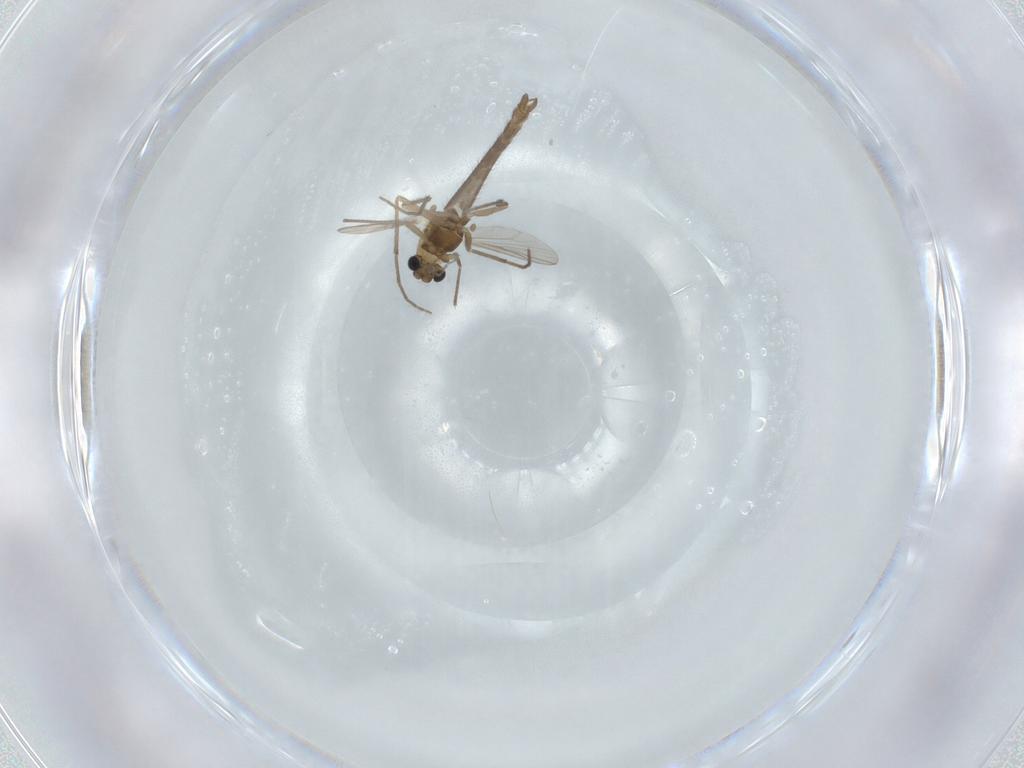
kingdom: Animalia
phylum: Arthropoda
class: Insecta
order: Diptera
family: Chironomidae
